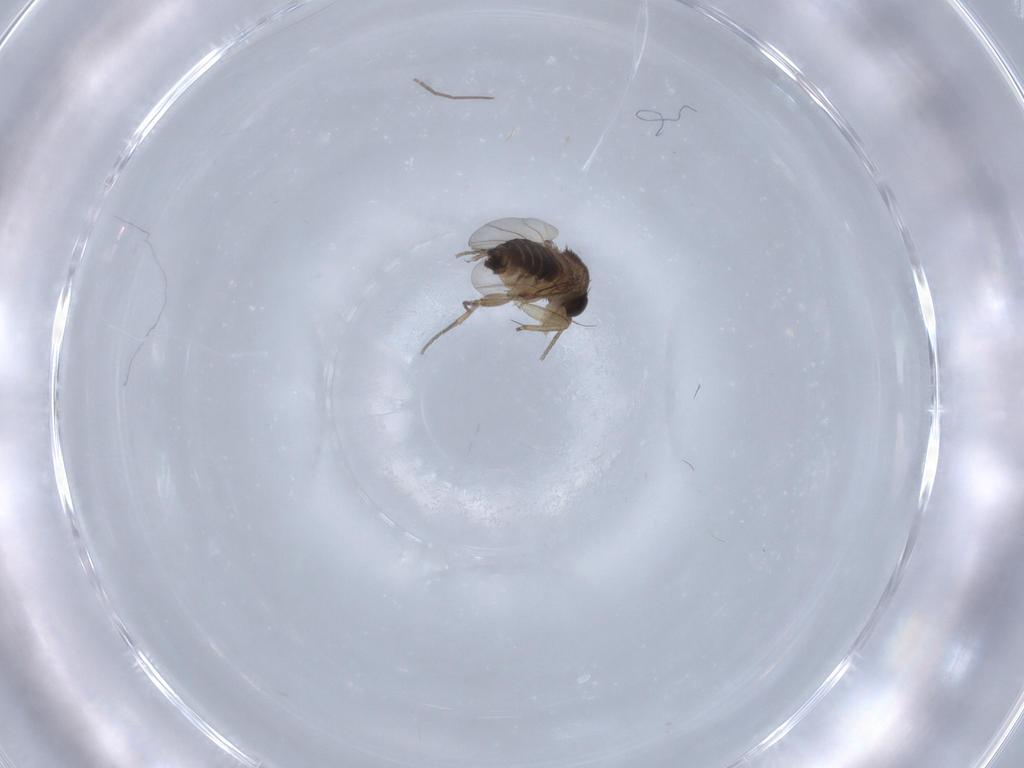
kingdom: Animalia
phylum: Arthropoda
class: Insecta
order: Diptera
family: Phoridae
